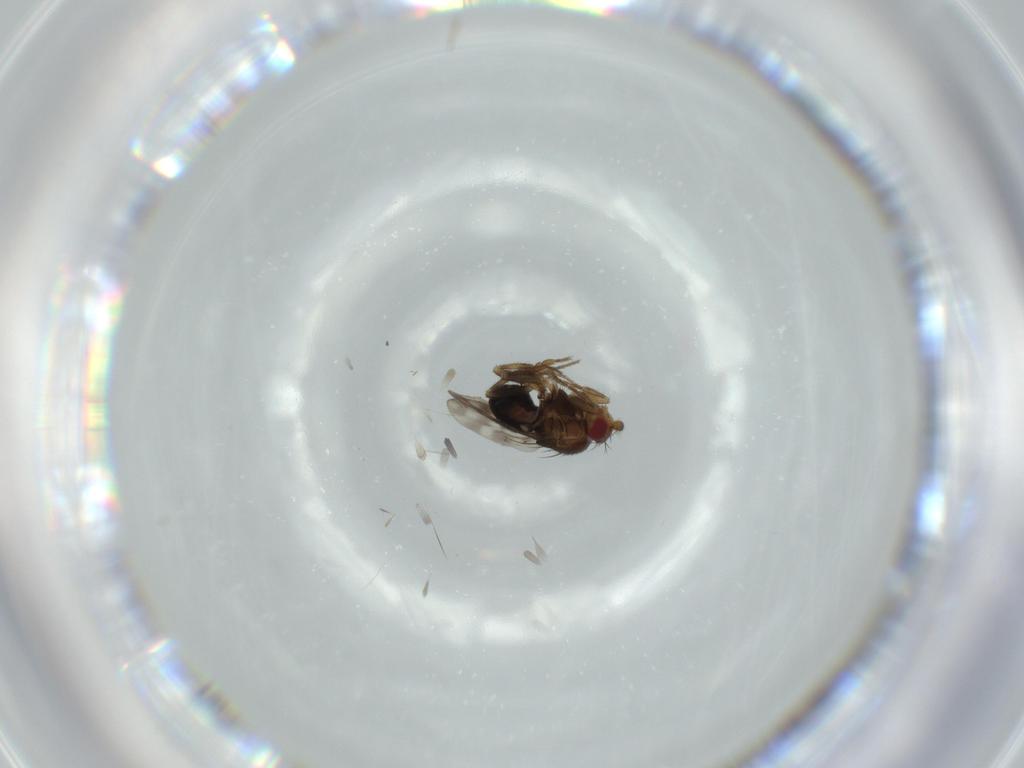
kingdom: Animalia
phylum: Arthropoda
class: Insecta
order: Diptera
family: Sphaeroceridae
